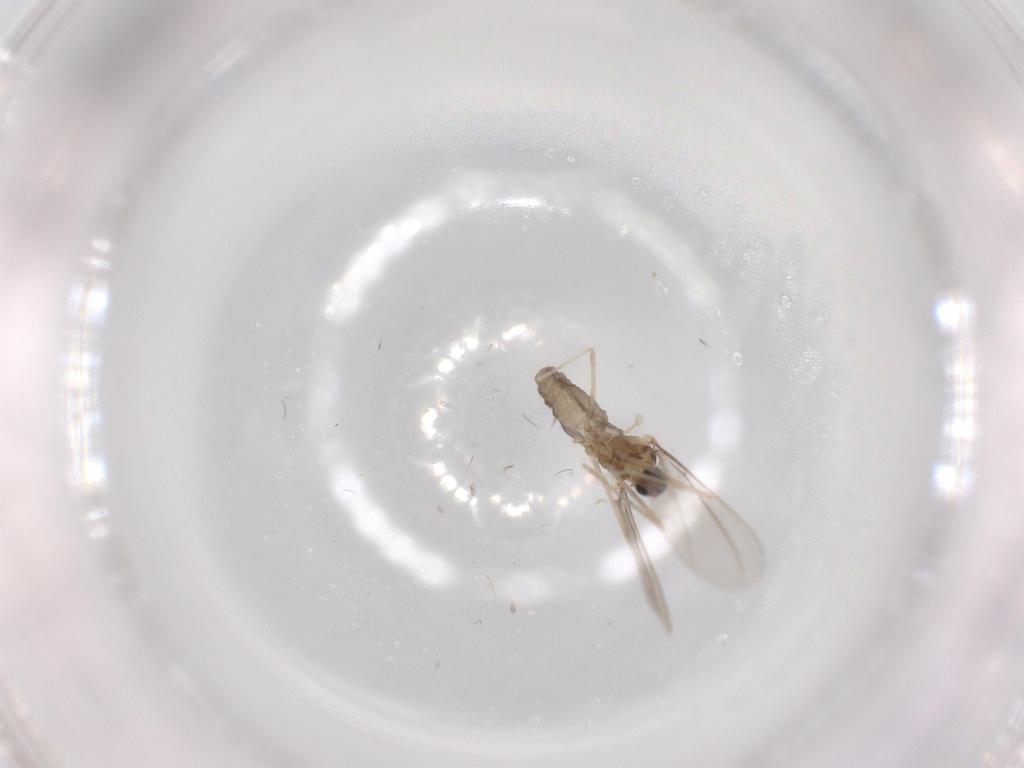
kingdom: Animalia
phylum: Arthropoda
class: Insecta
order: Diptera
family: Cecidomyiidae
